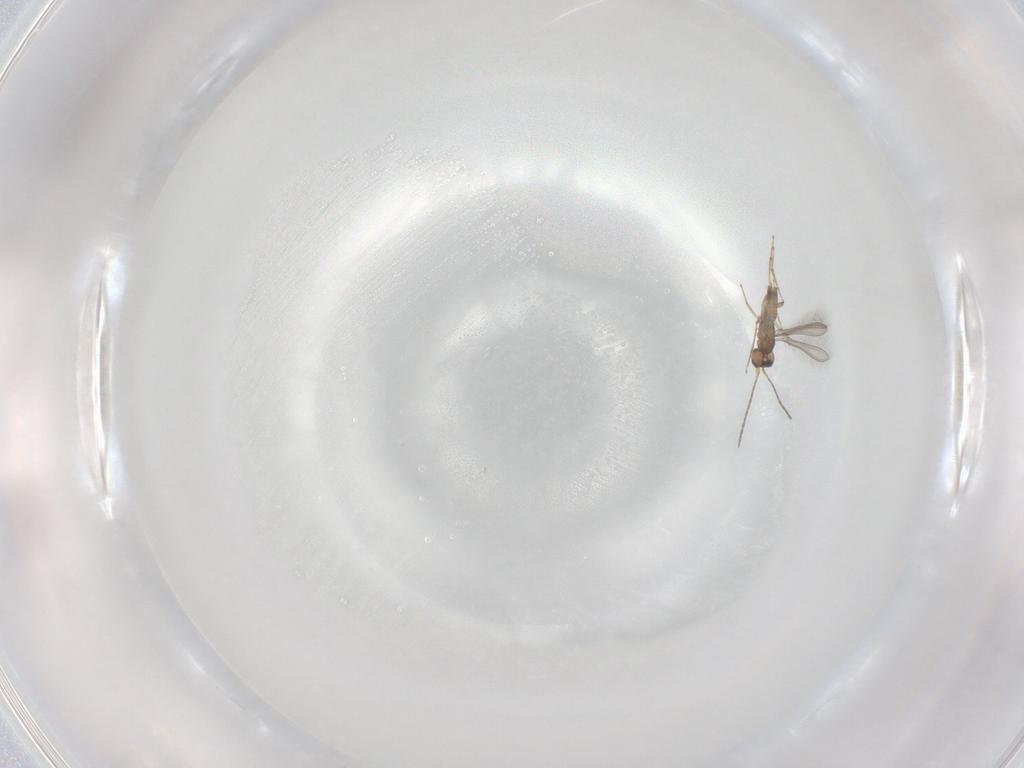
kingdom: Animalia
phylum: Arthropoda
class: Insecta
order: Hymenoptera
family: Mymaridae
